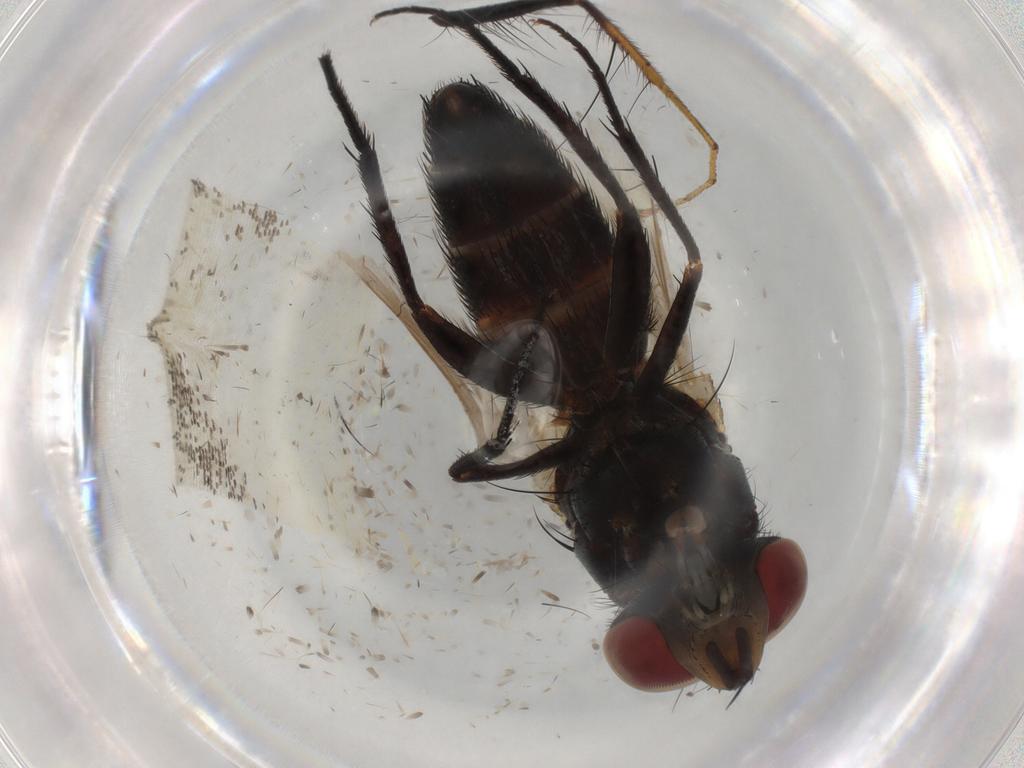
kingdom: Animalia
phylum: Arthropoda
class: Insecta
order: Diptera
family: Anthomyiidae
